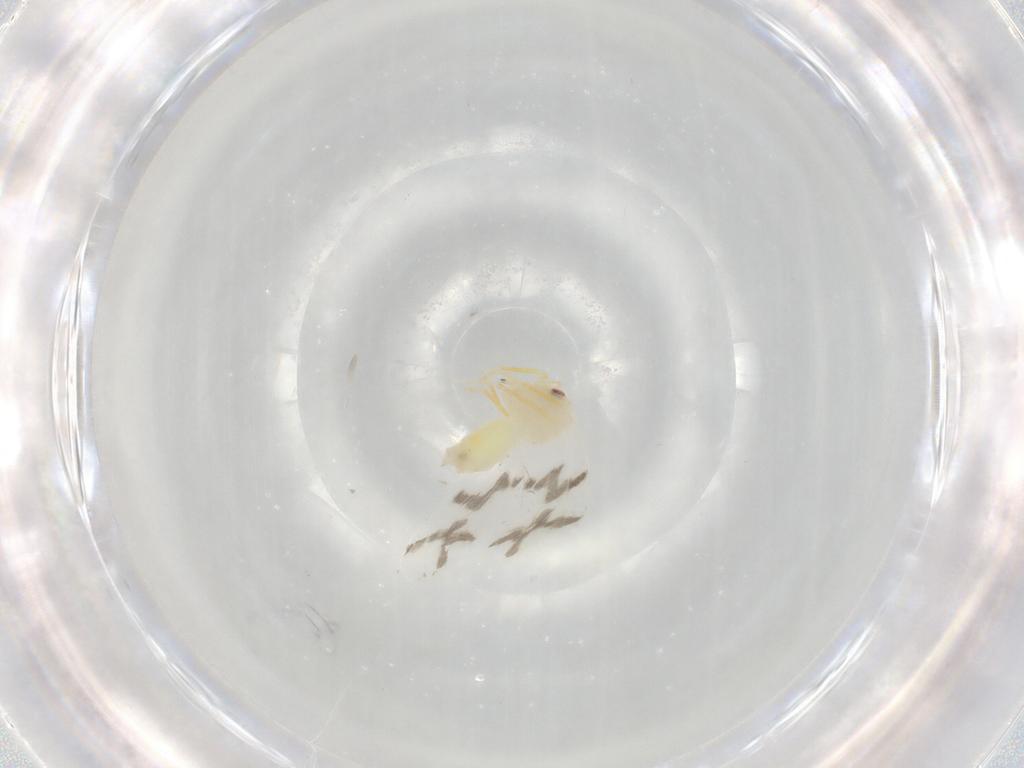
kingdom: Animalia
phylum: Arthropoda
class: Insecta
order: Hemiptera
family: Aleyrodidae
